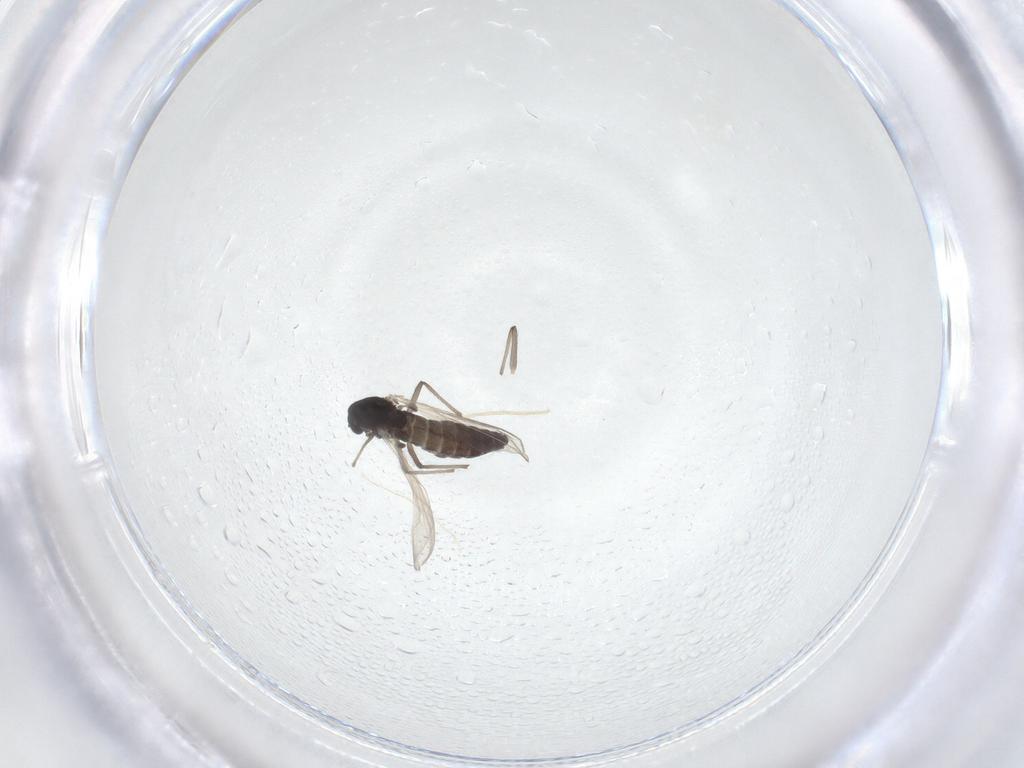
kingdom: Animalia
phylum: Arthropoda
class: Insecta
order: Diptera
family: Chironomidae
